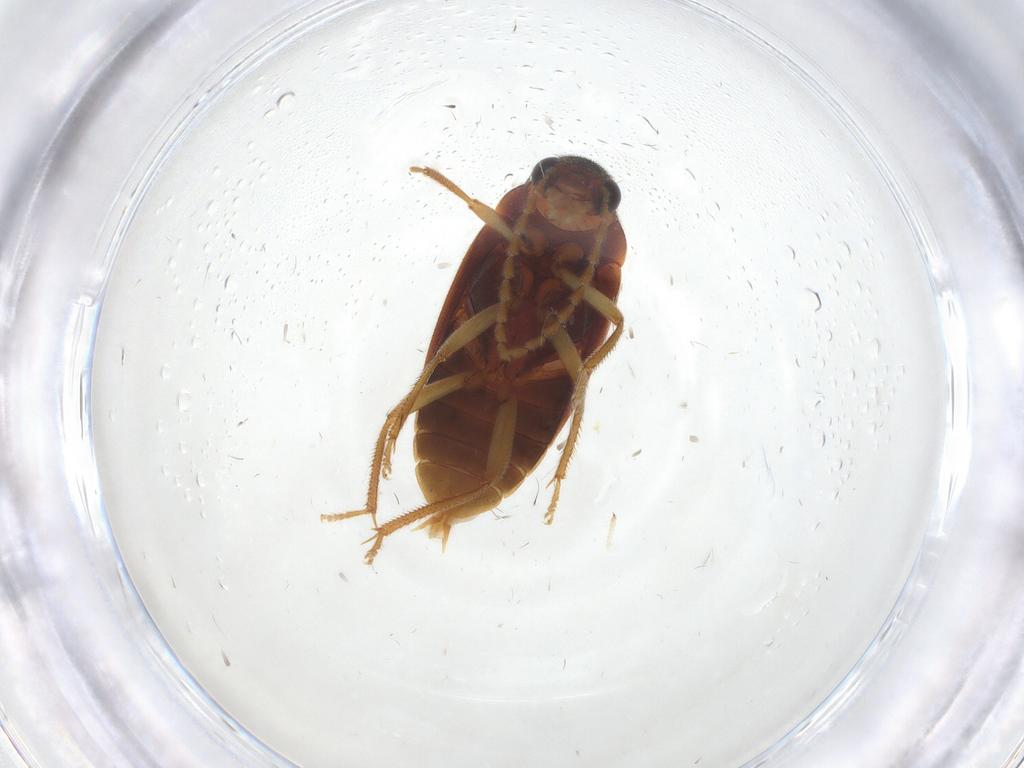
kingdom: Animalia
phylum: Arthropoda
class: Insecta
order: Coleoptera
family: Ptilodactylidae
